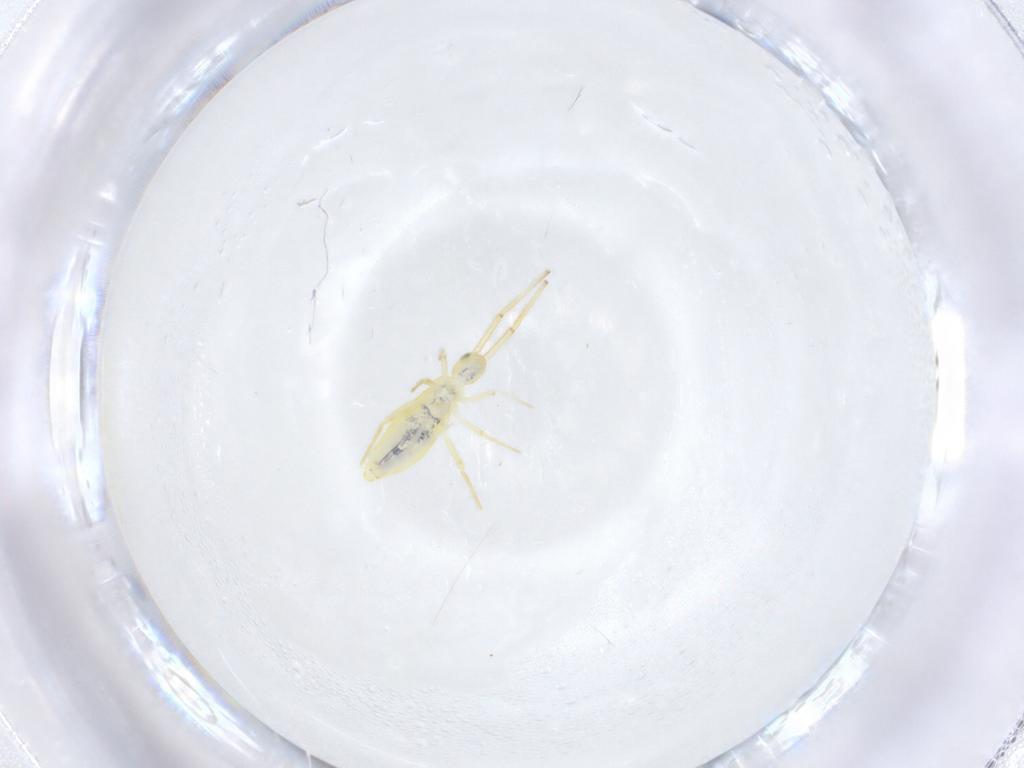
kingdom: Animalia
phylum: Arthropoda
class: Collembola
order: Entomobryomorpha
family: Paronellidae
